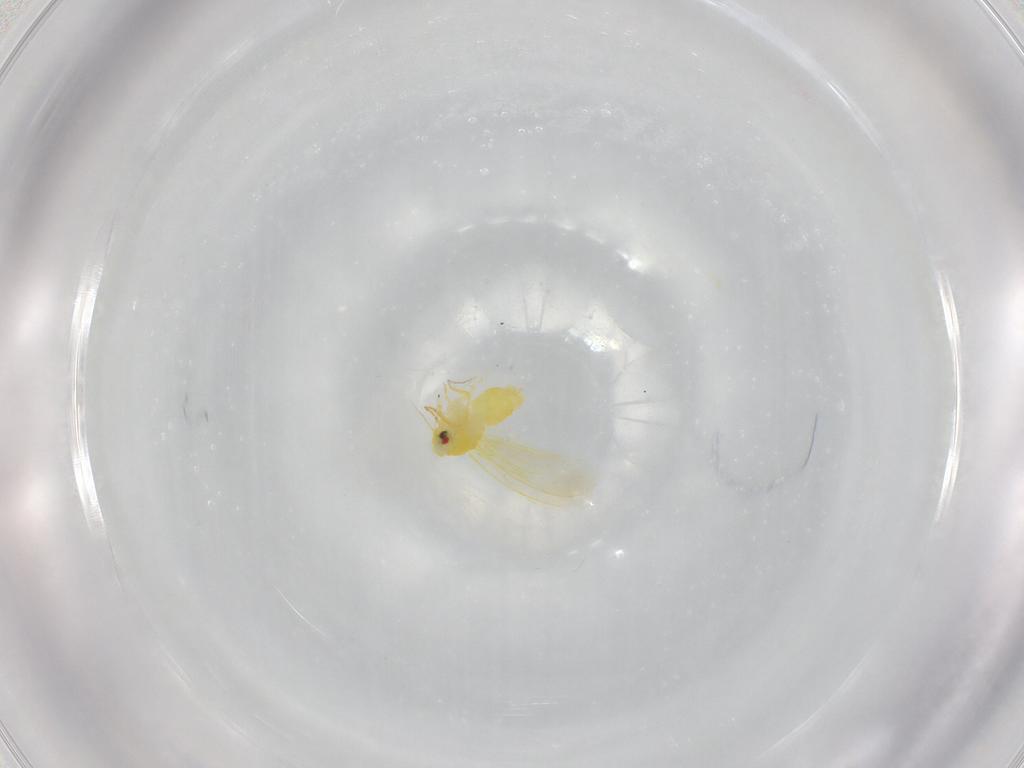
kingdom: Animalia
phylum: Arthropoda
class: Insecta
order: Hemiptera
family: Aleyrodidae
